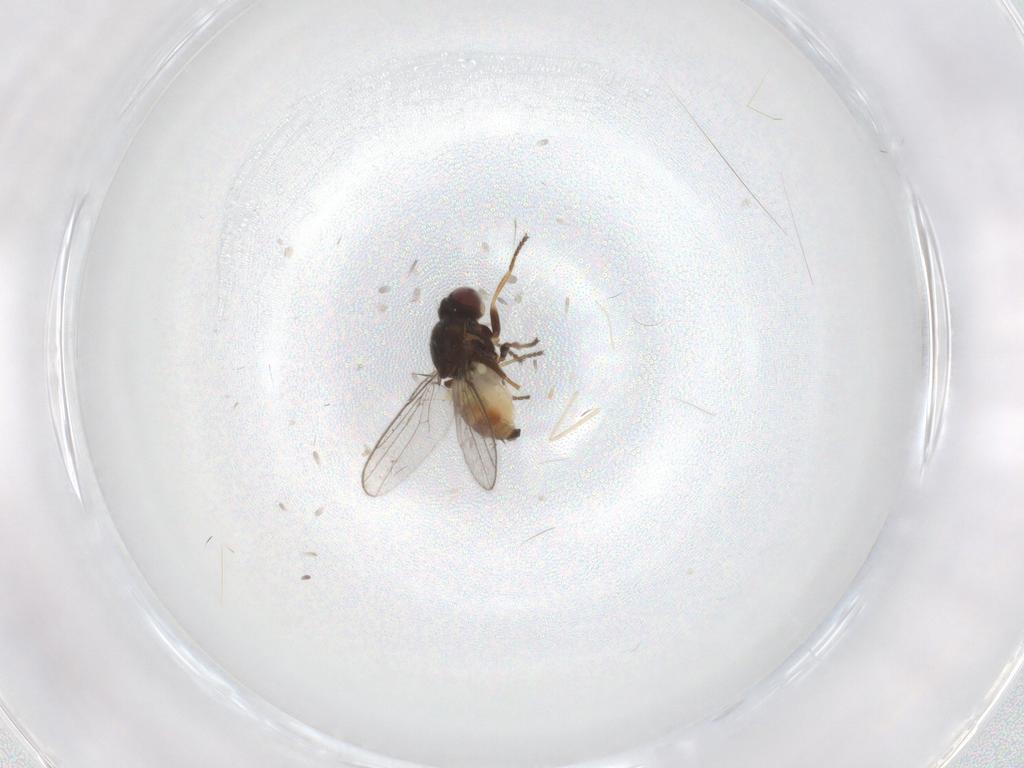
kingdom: Animalia
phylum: Arthropoda
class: Insecta
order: Diptera
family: Chloropidae
